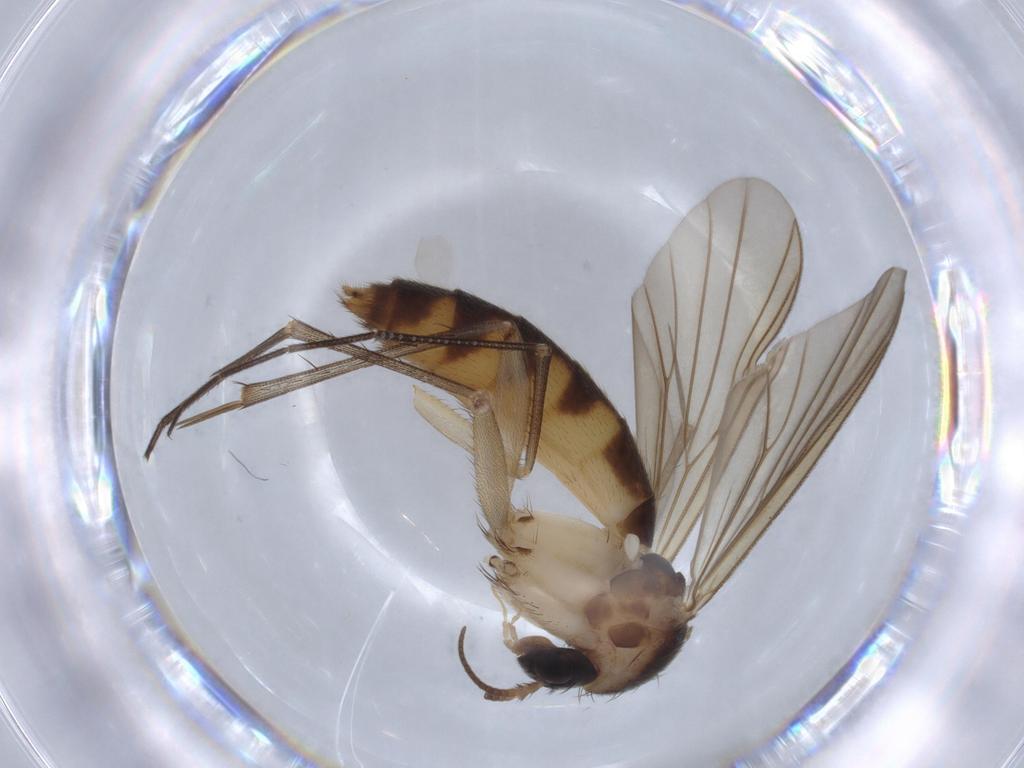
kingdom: Animalia
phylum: Arthropoda
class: Insecta
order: Diptera
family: Mycetophilidae
